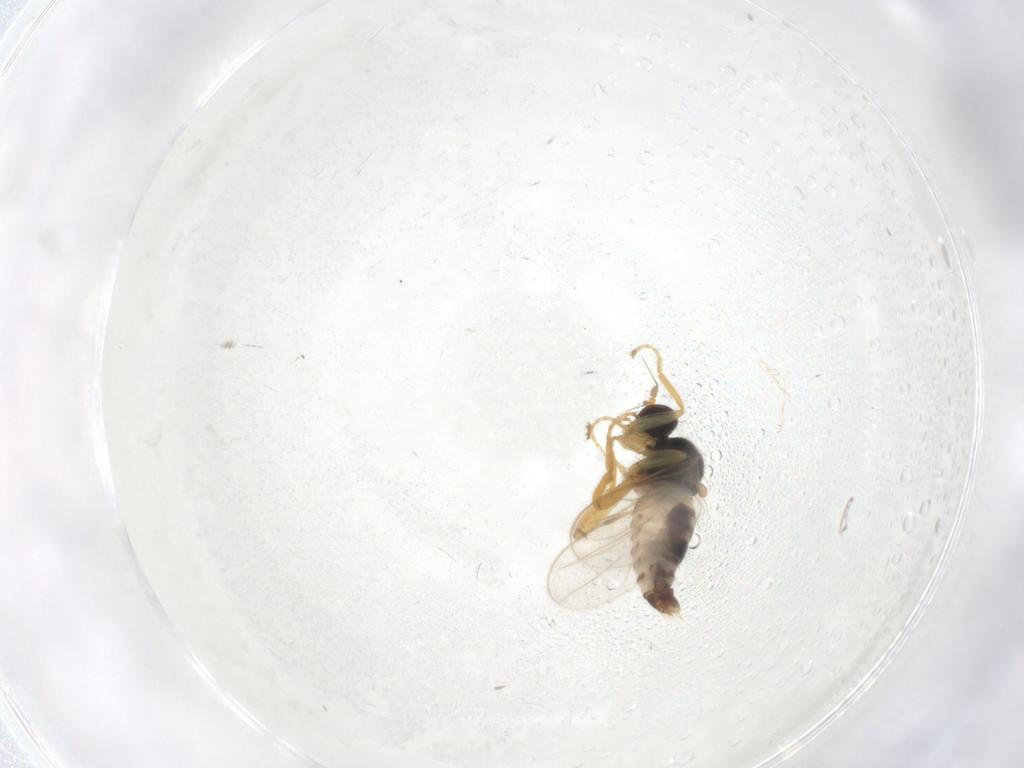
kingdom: Animalia
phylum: Arthropoda
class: Insecta
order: Diptera
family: Hybotidae
